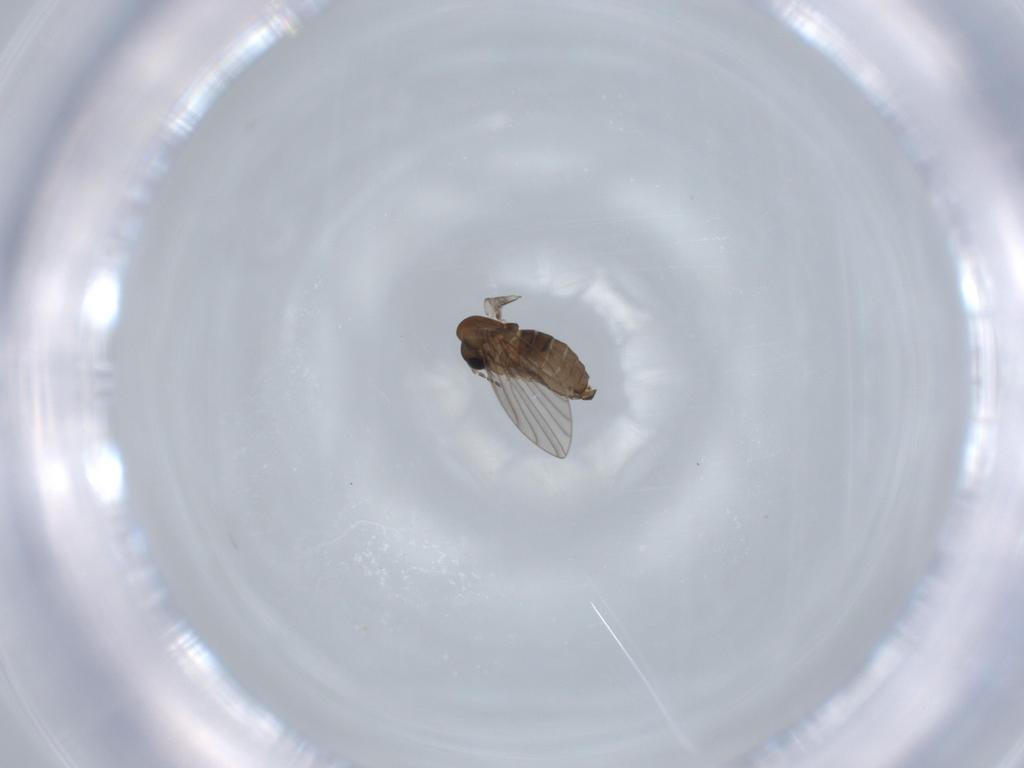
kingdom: Animalia
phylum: Arthropoda
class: Insecta
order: Diptera
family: Psychodidae
